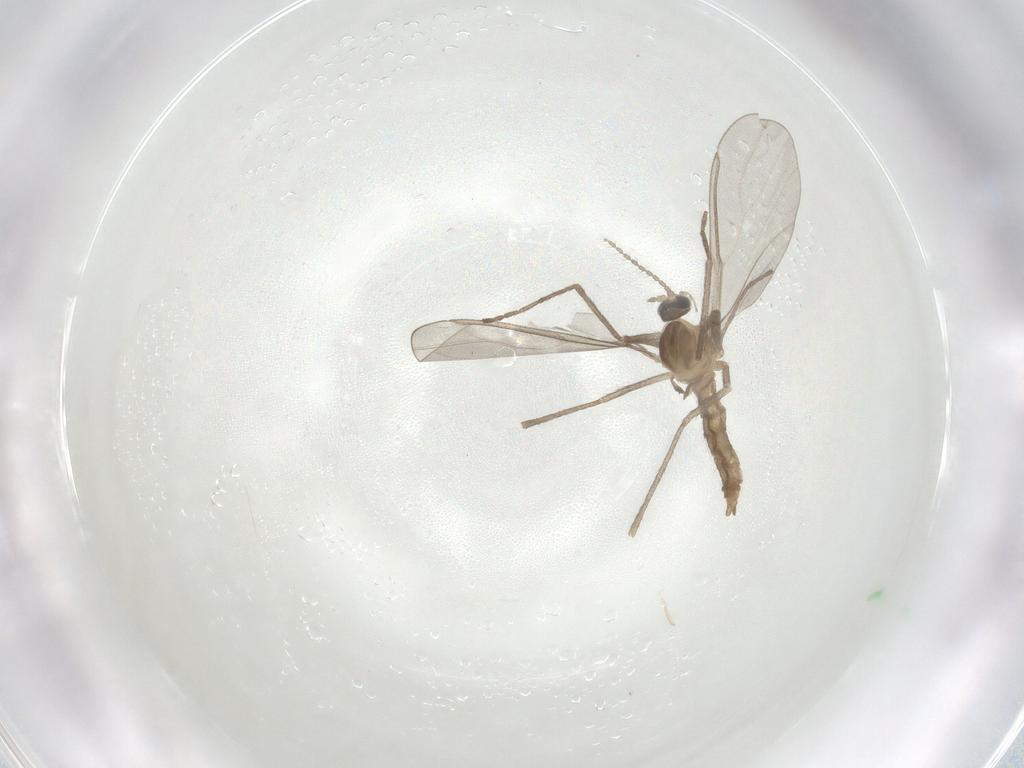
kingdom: Animalia
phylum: Arthropoda
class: Insecta
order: Diptera
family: Cecidomyiidae
